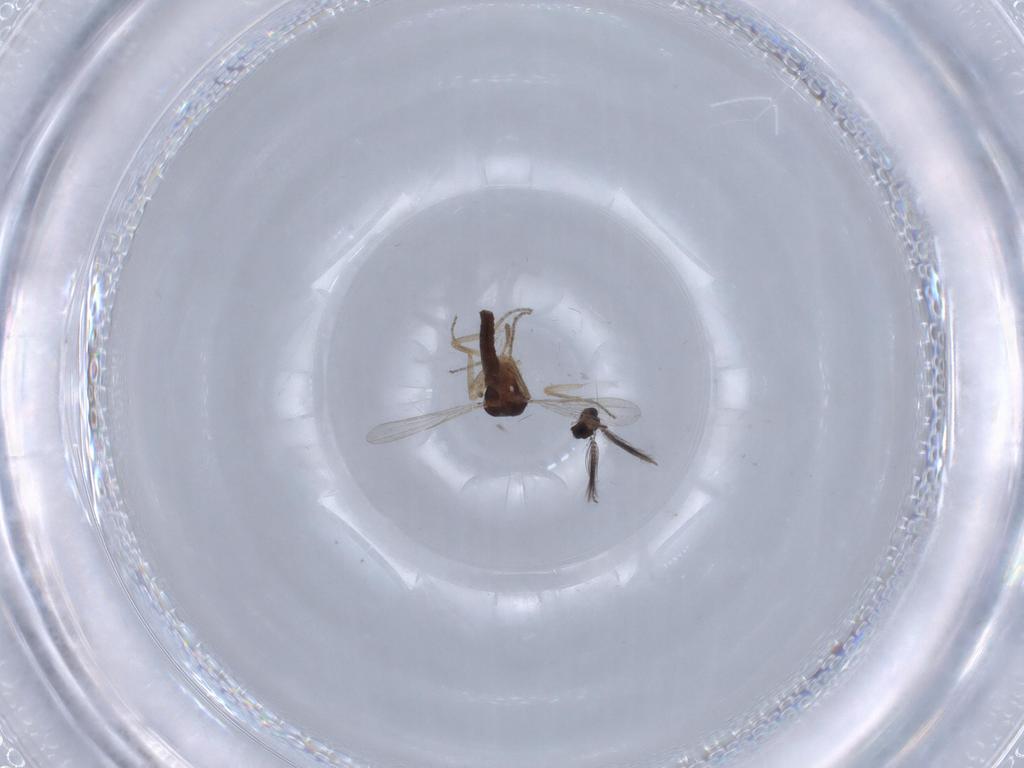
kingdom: Animalia
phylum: Arthropoda
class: Insecta
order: Diptera
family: Ceratopogonidae
